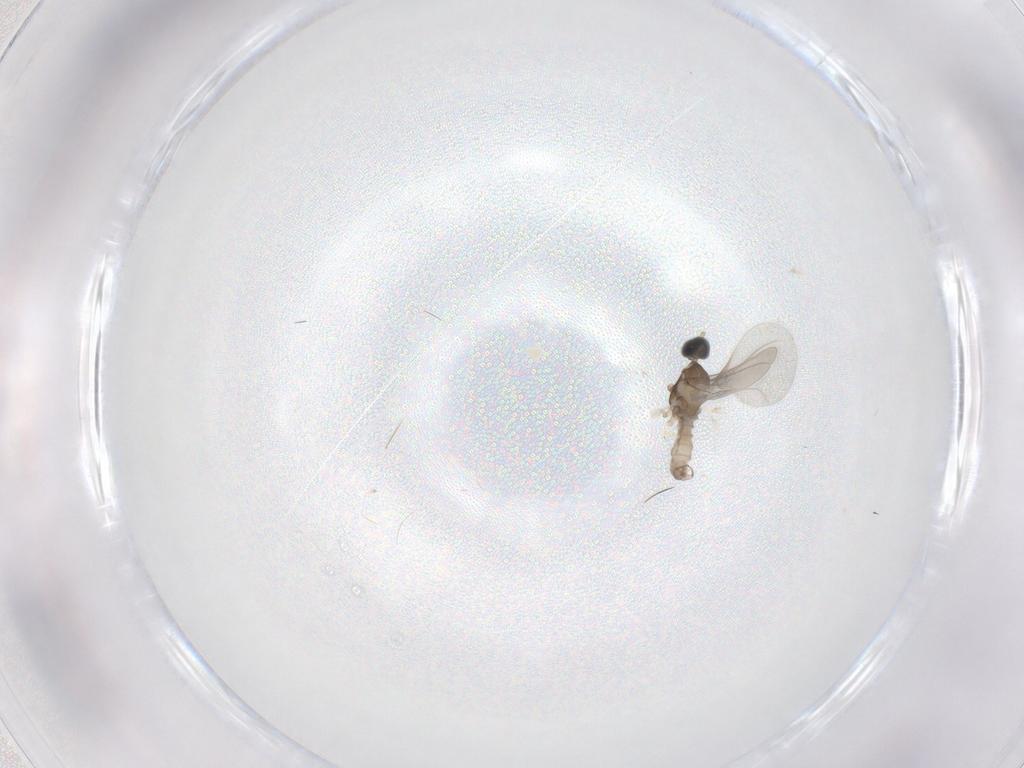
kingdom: Animalia
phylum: Arthropoda
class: Insecta
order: Diptera
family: Cecidomyiidae
